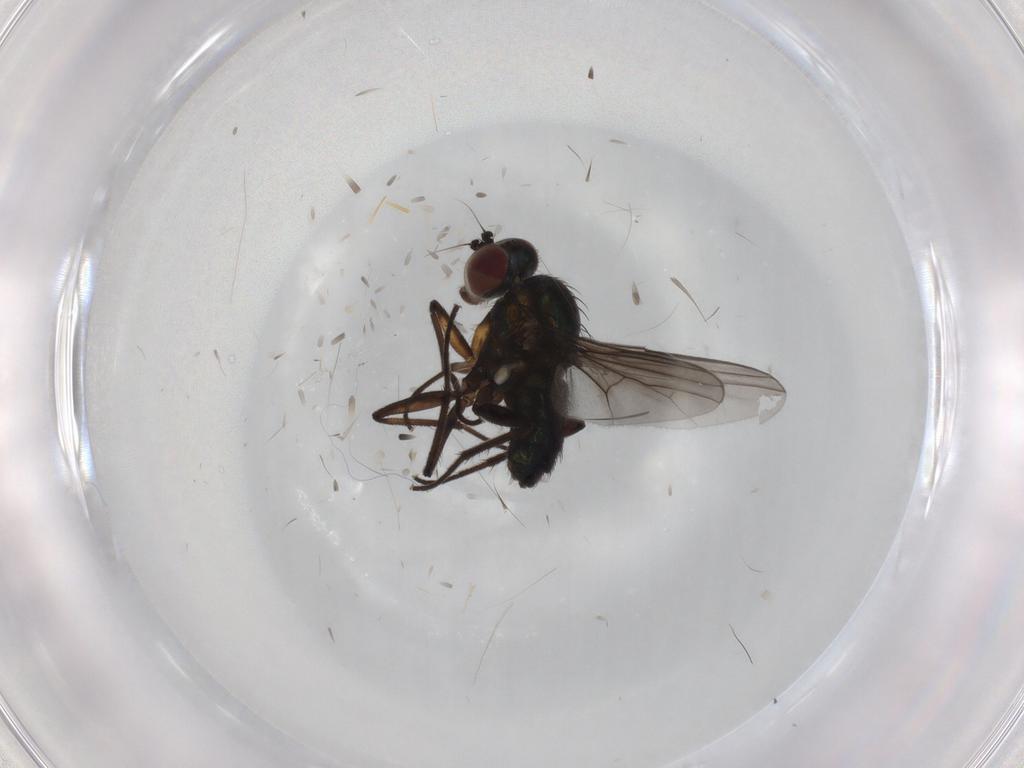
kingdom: Animalia
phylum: Arthropoda
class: Insecta
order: Diptera
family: Dolichopodidae
